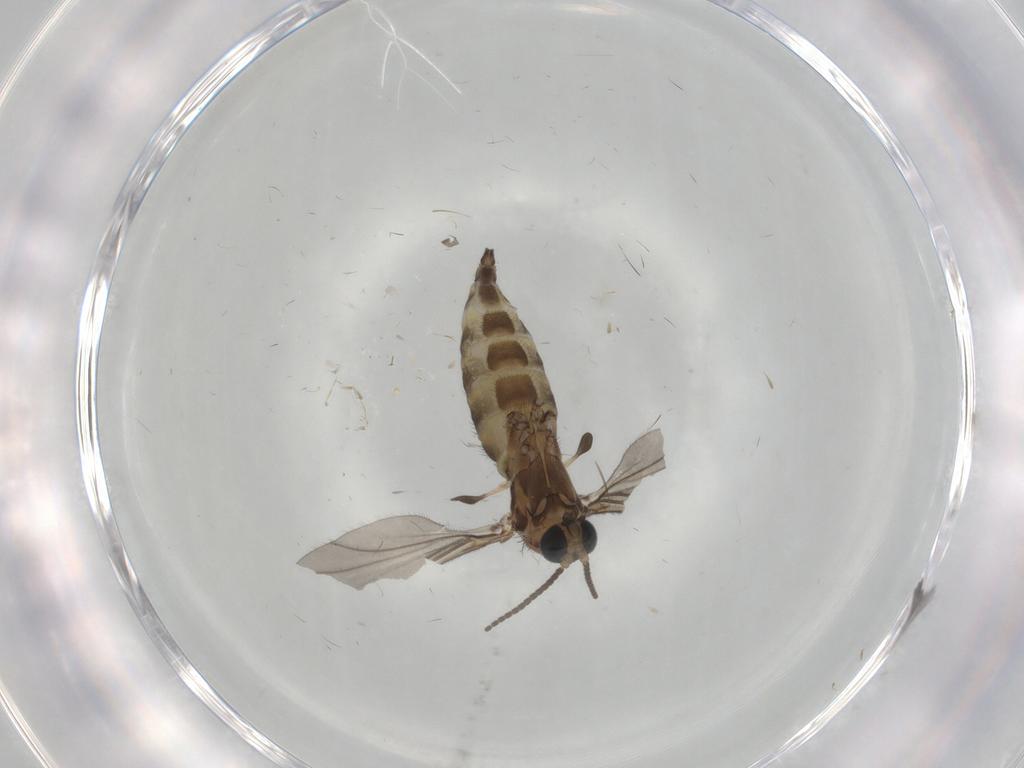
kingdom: Animalia
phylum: Arthropoda
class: Insecta
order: Diptera
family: Sciaridae
